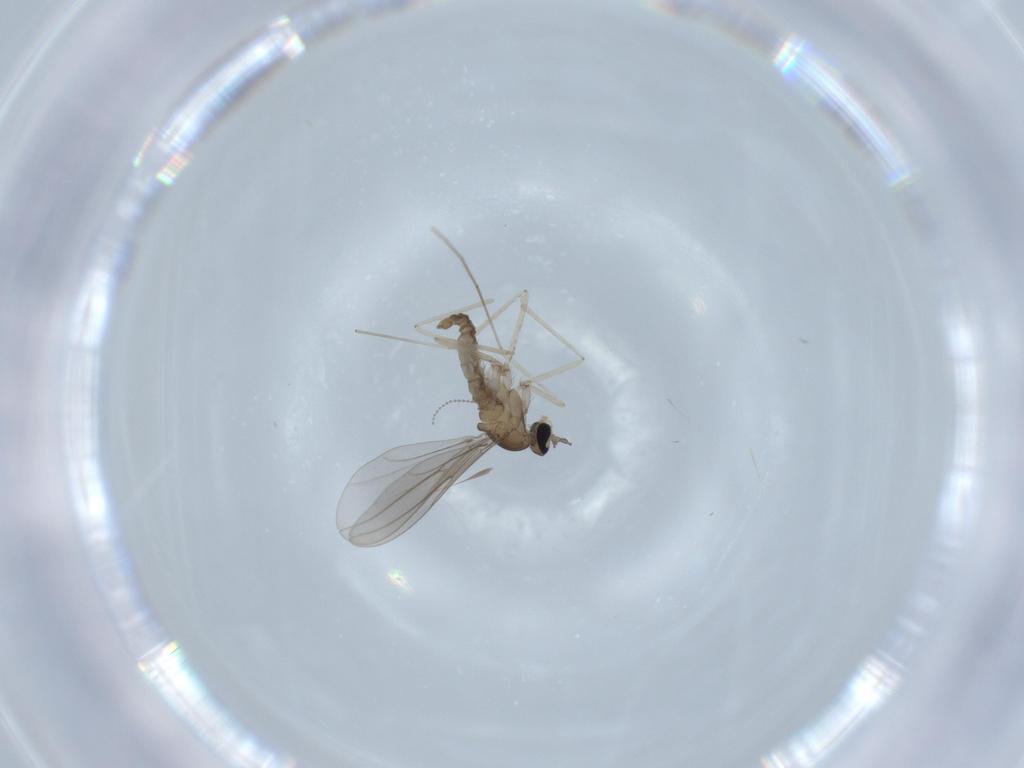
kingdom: Animalia
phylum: Arthropoda
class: Insecta
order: Diptera
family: Cecidomyiidae
